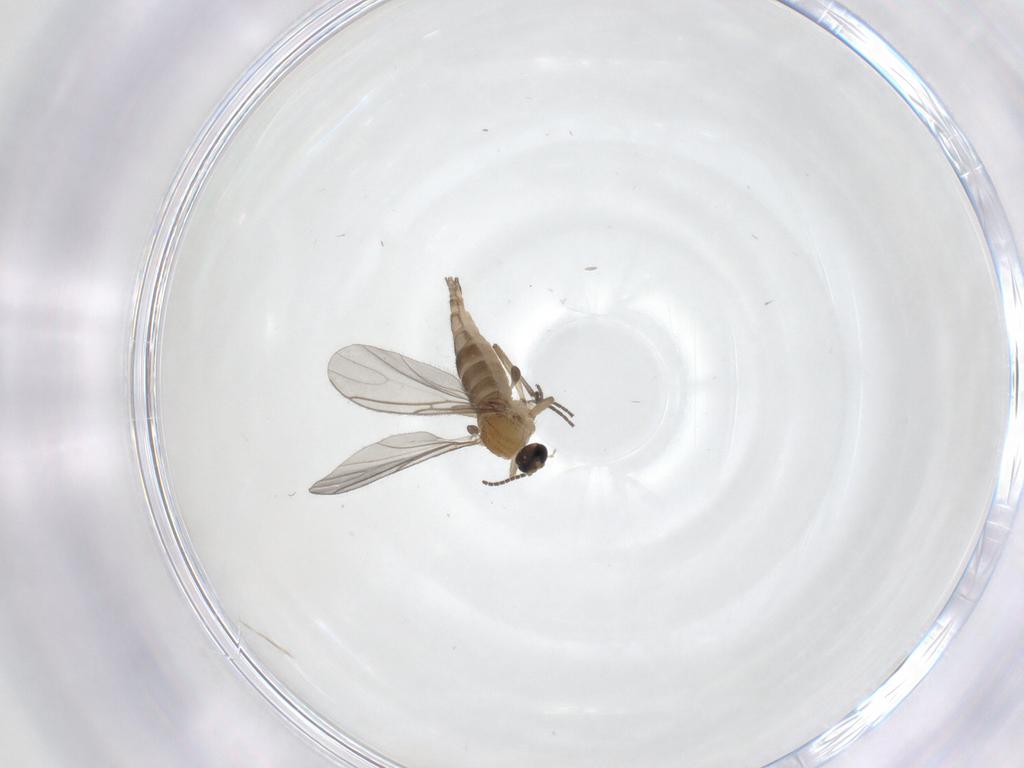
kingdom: Animalia
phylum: Arthropoda
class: Insecta
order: Diptera
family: Sciaridae
